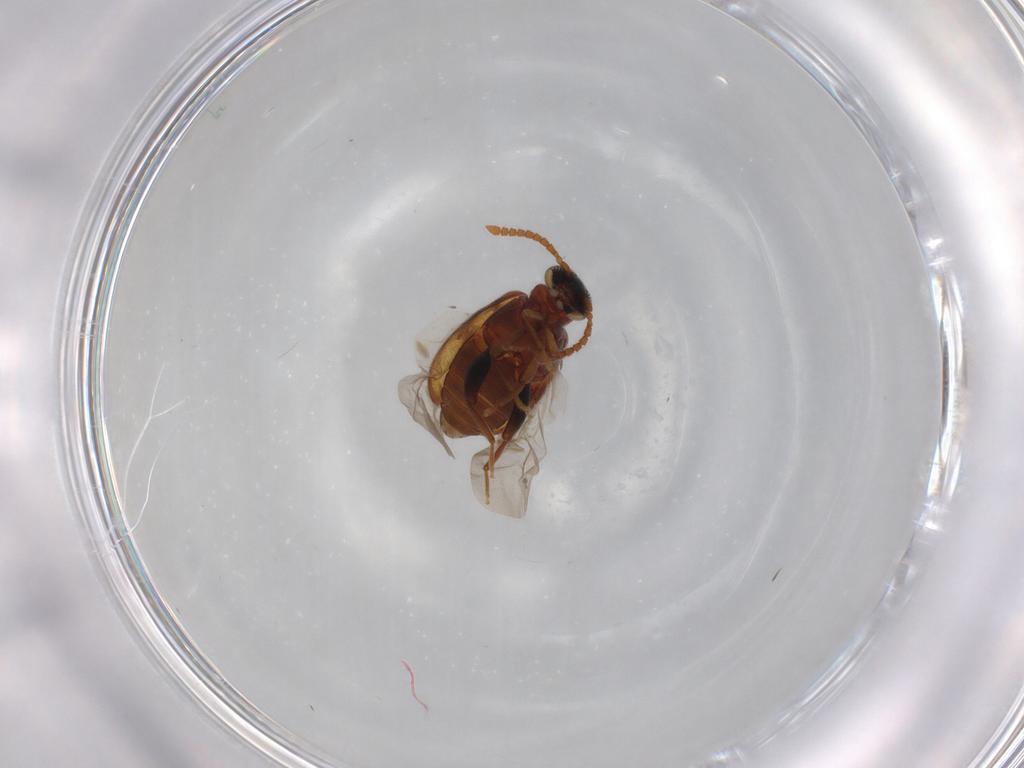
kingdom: Animalia
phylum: Arthropoda
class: Insecta
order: Coleoptera
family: Aderidae
